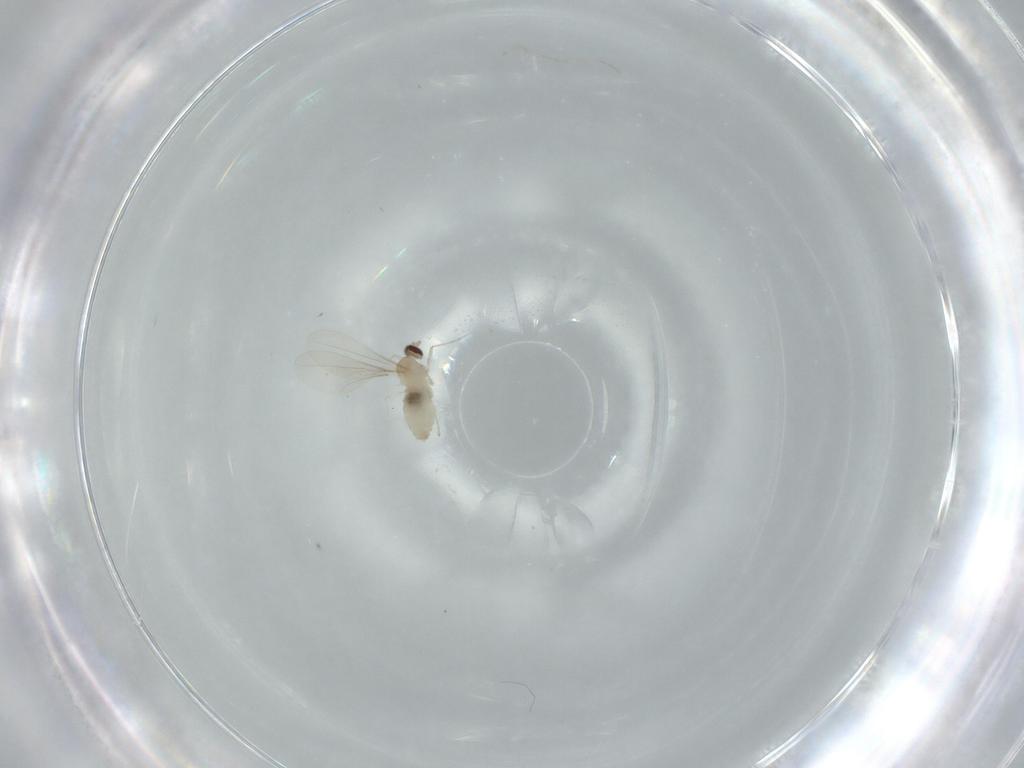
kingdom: Animalia
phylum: Arthropoda
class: Insecta
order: Diptera
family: Cecidomyiidae
